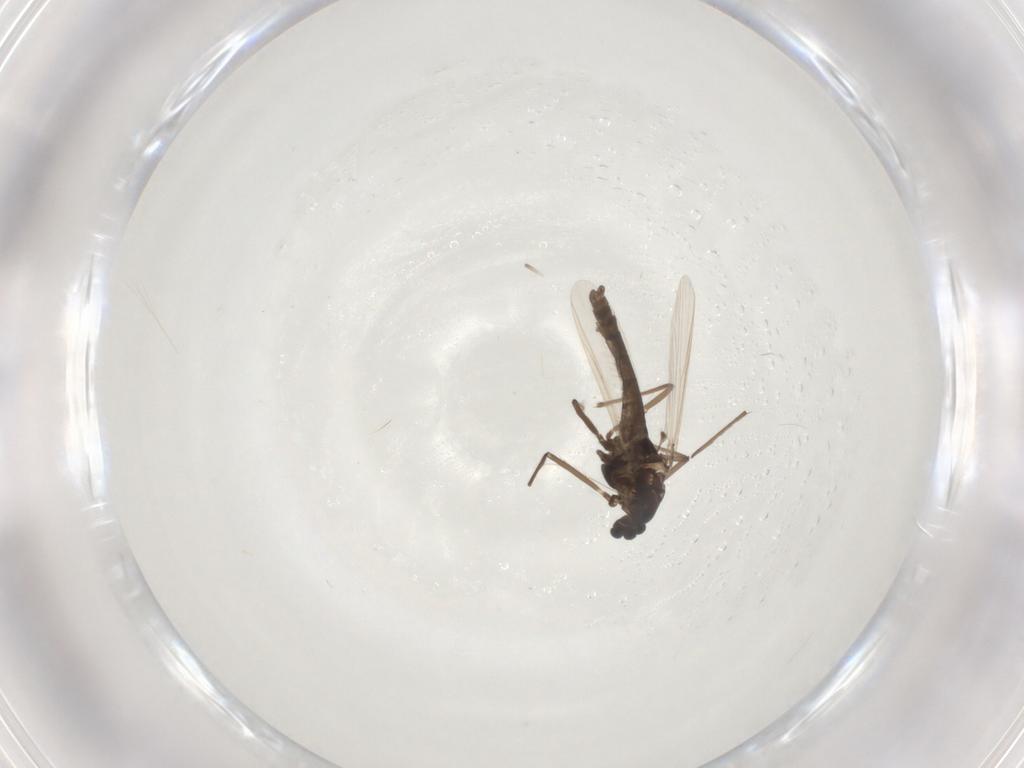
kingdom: Animalia
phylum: Arthropoda
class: Insecta
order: Diptera
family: Chironomidae
